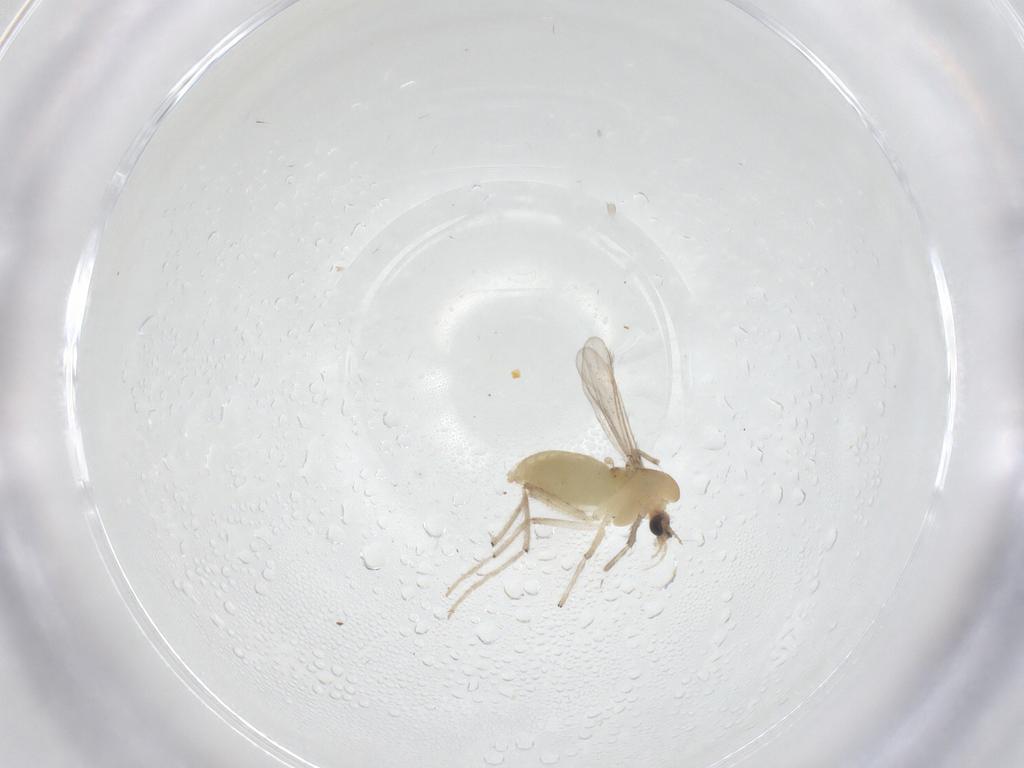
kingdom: Animalia
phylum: Arthropoda
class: Insecta
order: Diptera
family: Chironomidae
